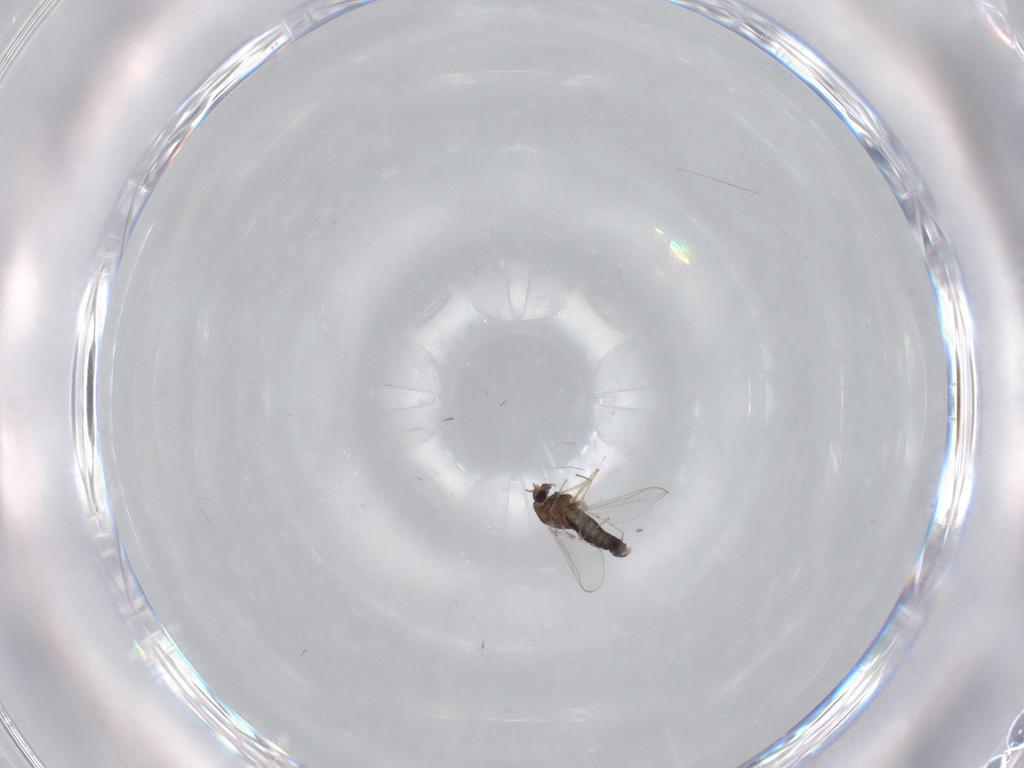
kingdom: Animalia
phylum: Arthropoda
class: Insecta
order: Diptera
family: Chironomidae
